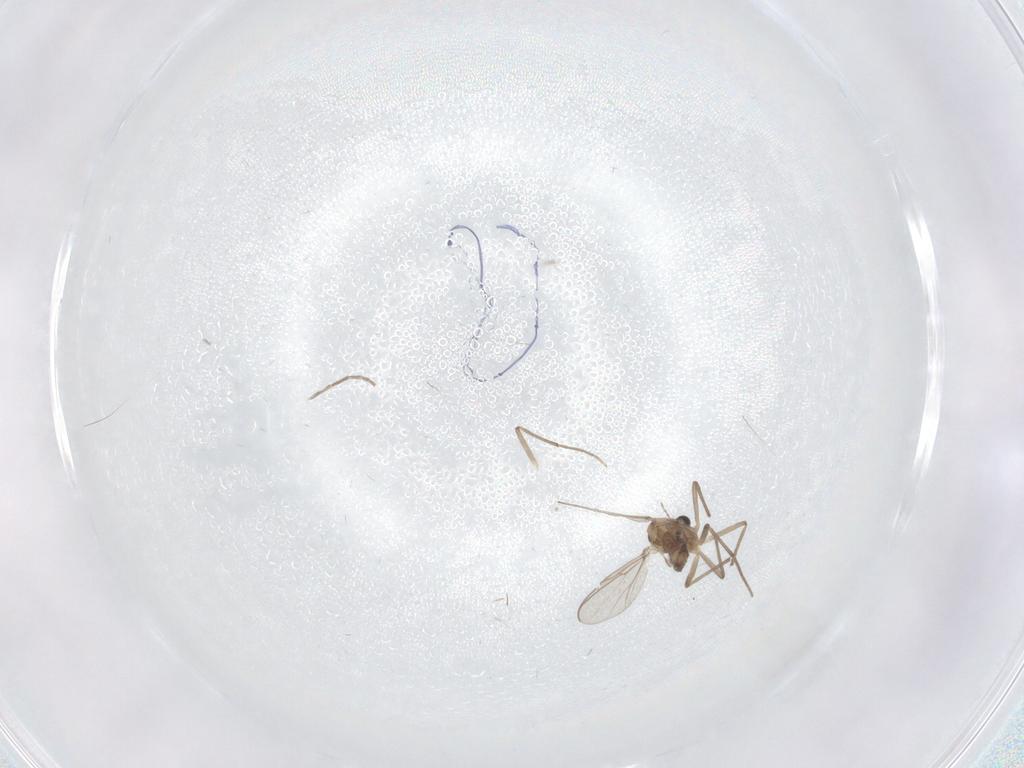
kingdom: Animalia
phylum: Arthropoda
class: Insecta
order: Diptera
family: Chironomidae
